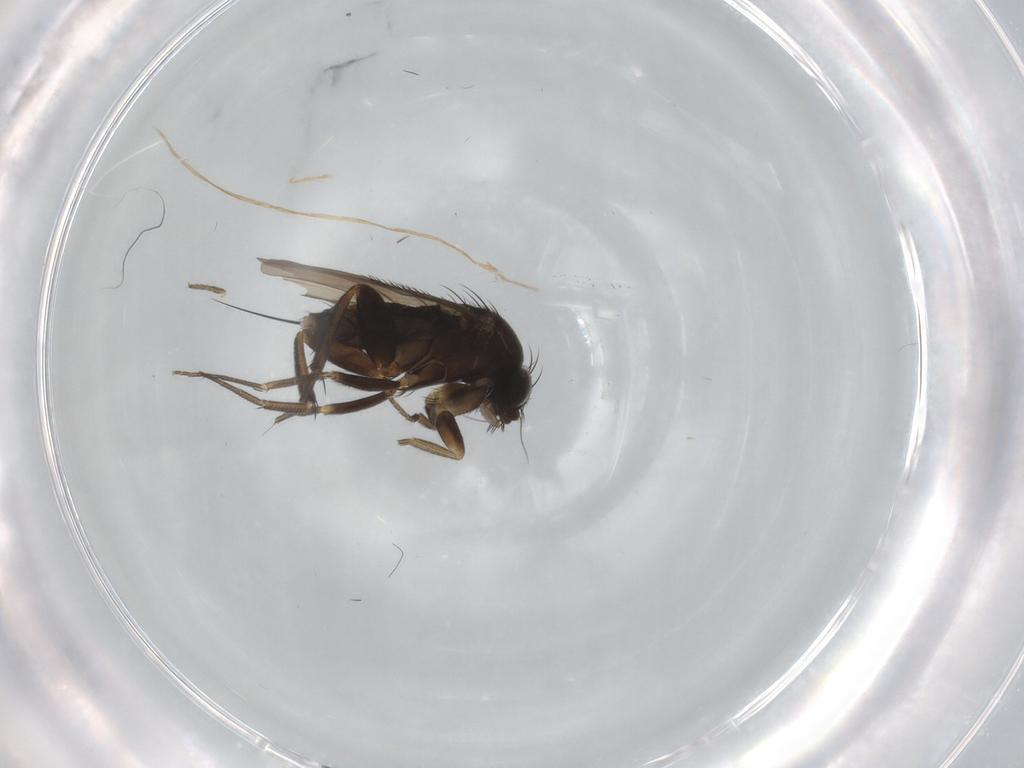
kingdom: Animalia
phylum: Arthropoda
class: Insecta
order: Diptera
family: Phoridae
